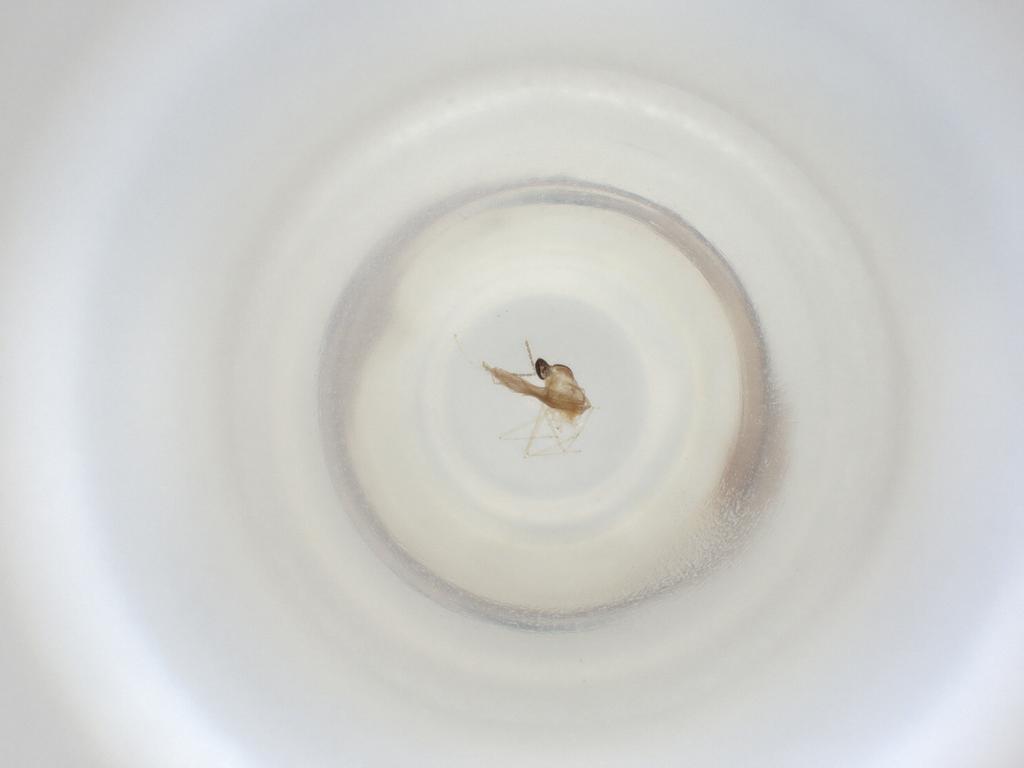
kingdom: Animalia
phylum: Arthropoda
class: Insecta
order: Diptera
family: Cecidomyiidae
